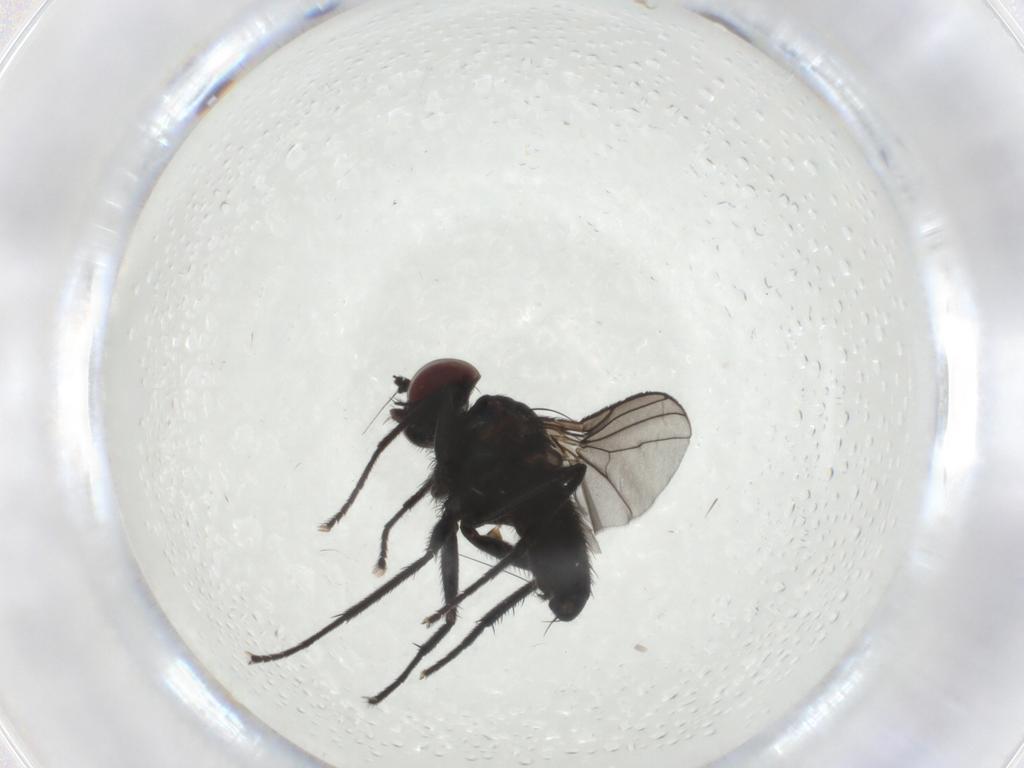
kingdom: Animalia
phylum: Arthropoda
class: Insecta
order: Diptera
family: Dolichopodidae
